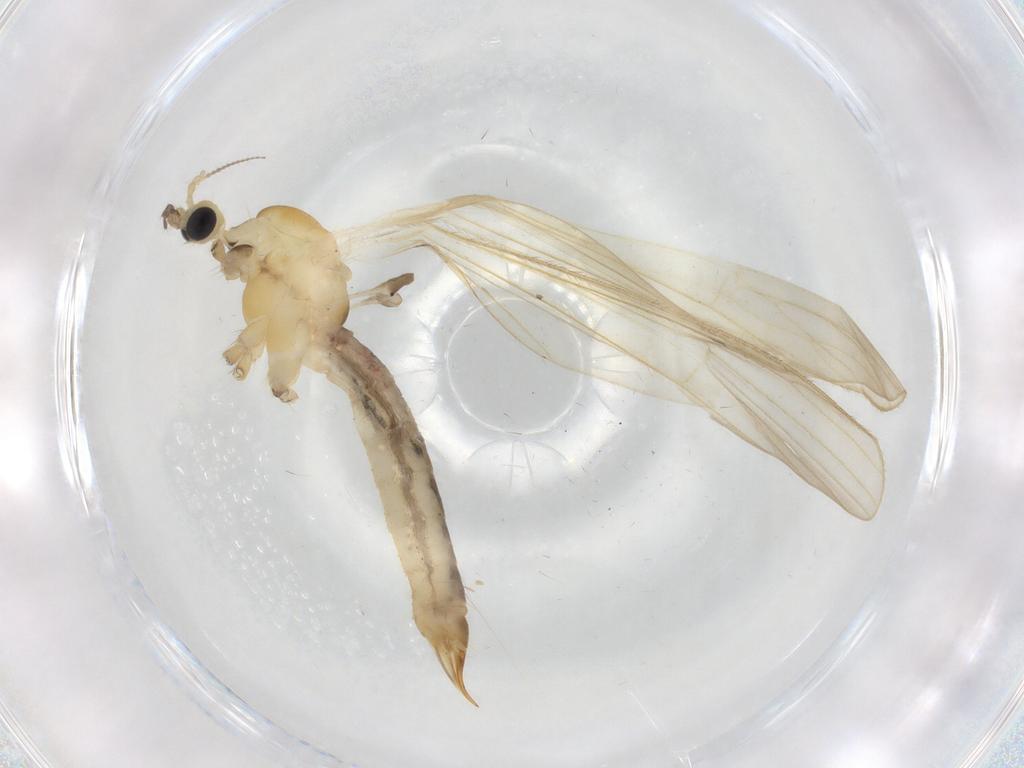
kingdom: Animalia
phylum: Arthropoda
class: Insecta
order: Diptera
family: Limoniidae
